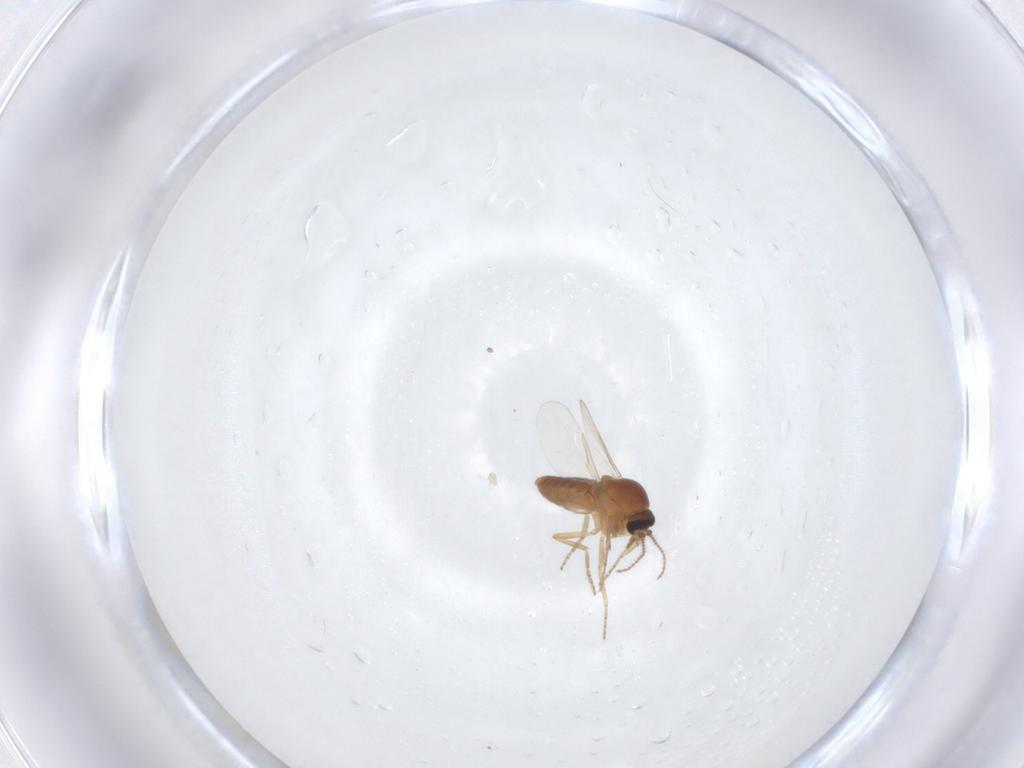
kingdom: Animalia
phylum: Arthropoda
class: Insecta
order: Diptera
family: Ceratopogonidae
